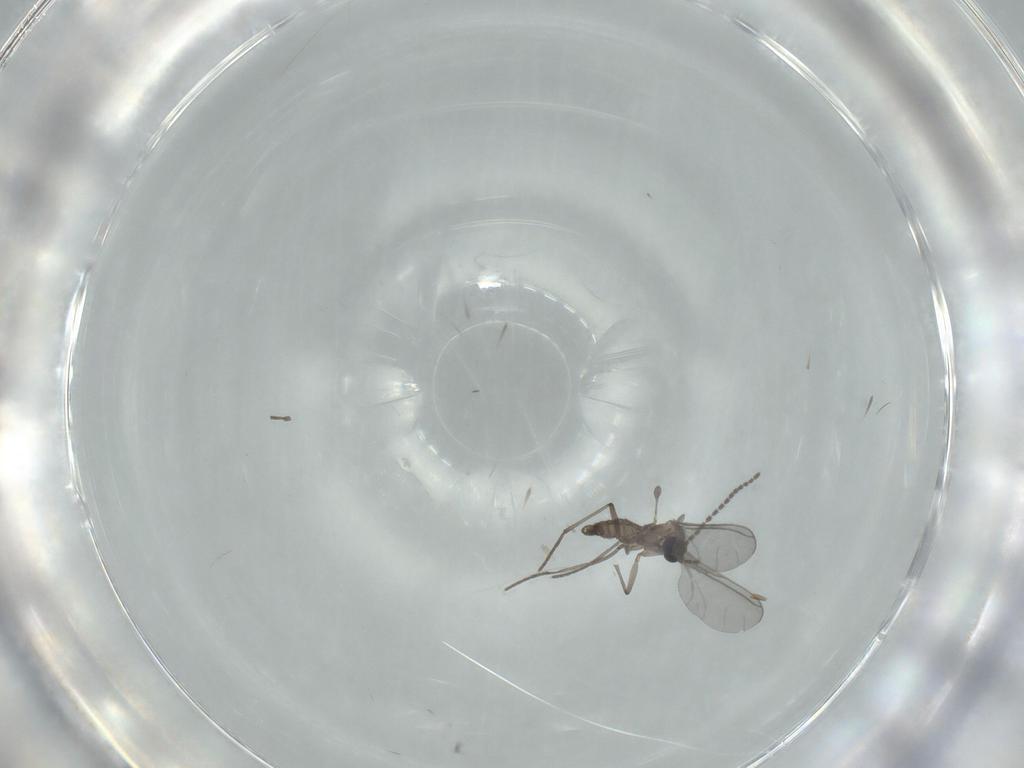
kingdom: Animalia
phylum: Arthropoda
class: Insecta
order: Diptera
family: Sciaridae
